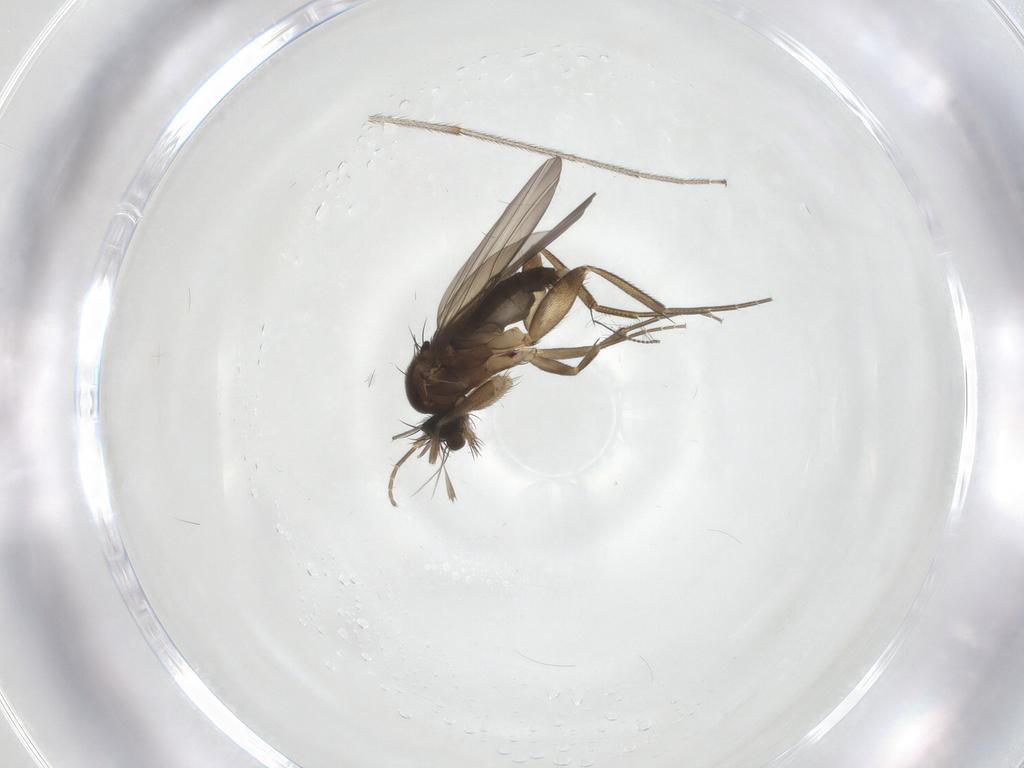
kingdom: Animalia
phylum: Arthropoda
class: Insecta
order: Diptera
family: Phoridae
